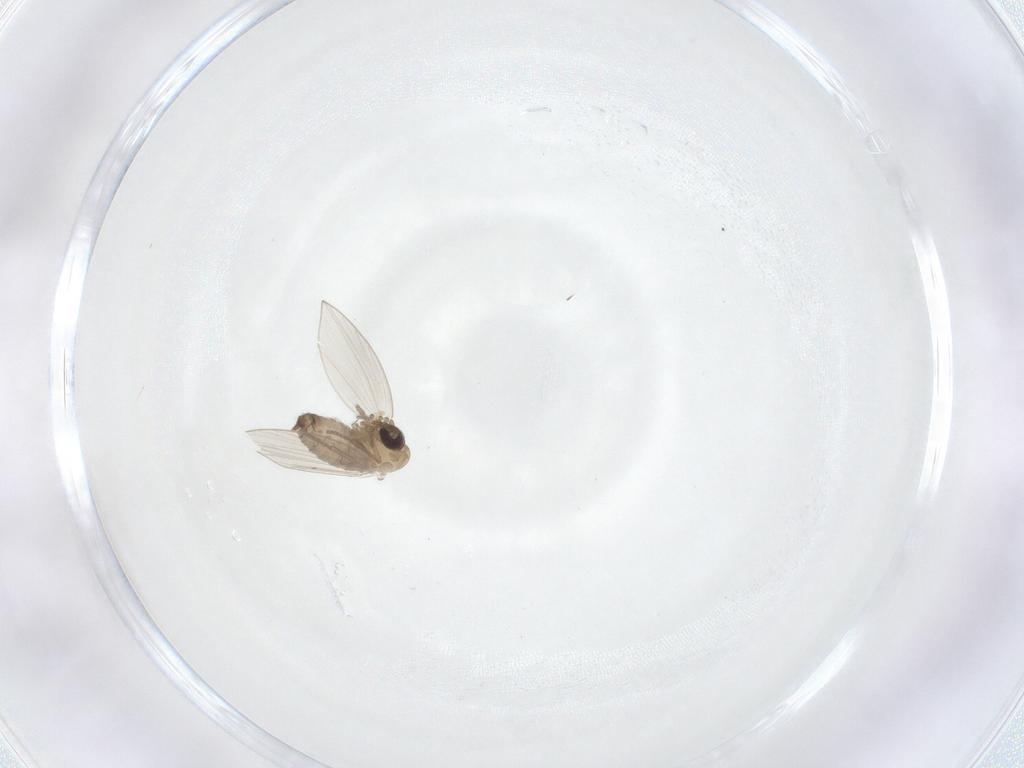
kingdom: Animalia
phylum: Arthropoda
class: Insecta
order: Diptera
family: Psychodidae
